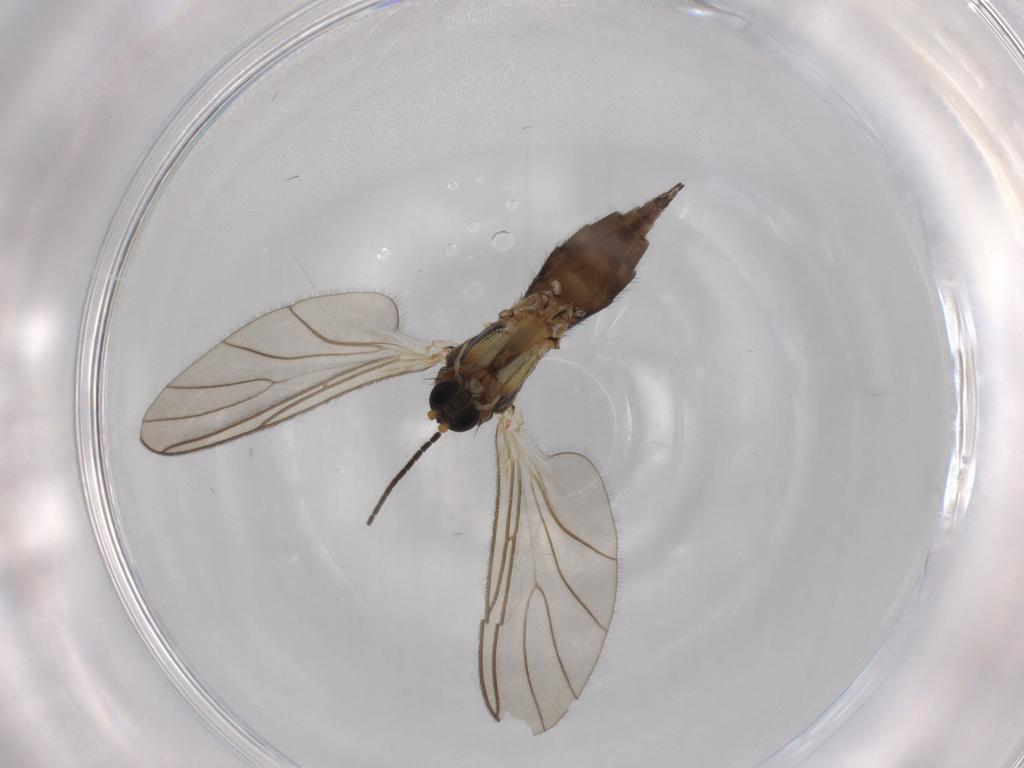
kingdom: Animalia
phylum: Arthropoda
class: Insecta
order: Diptera
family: Sciaridae
